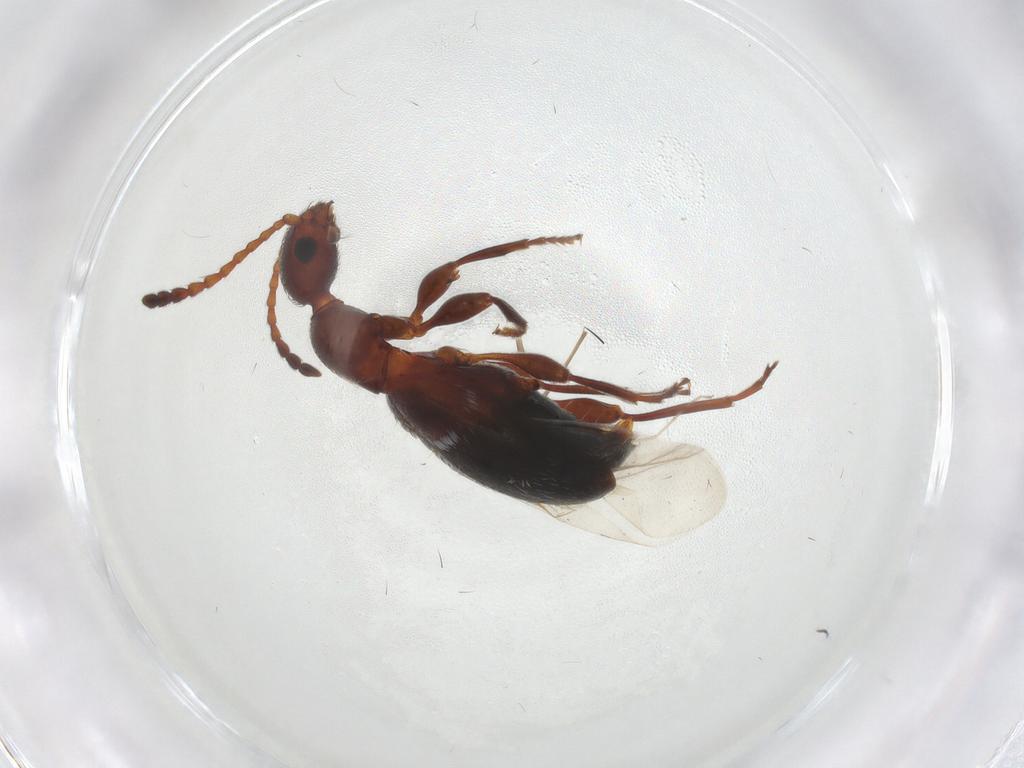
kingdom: Animalia
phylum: Arthropoda
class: Insecta
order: Coleoptera
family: Anthicidae
